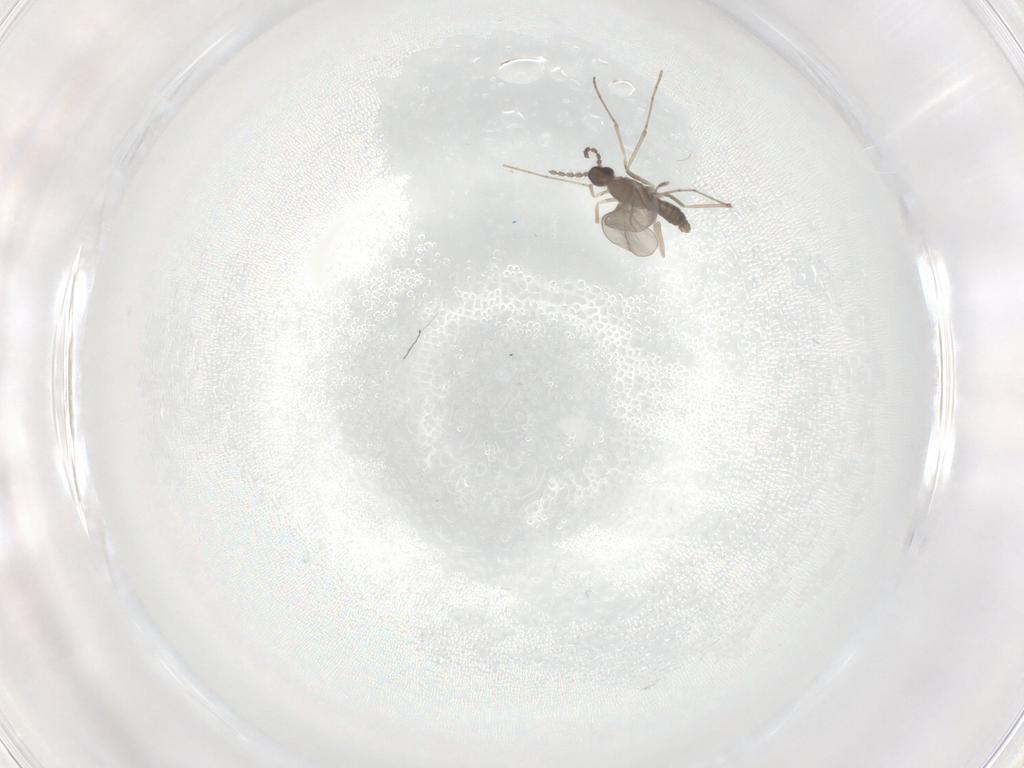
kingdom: Animalia
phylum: Arthropoda
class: Insecta
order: Diptera
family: Cecidomyiidae
